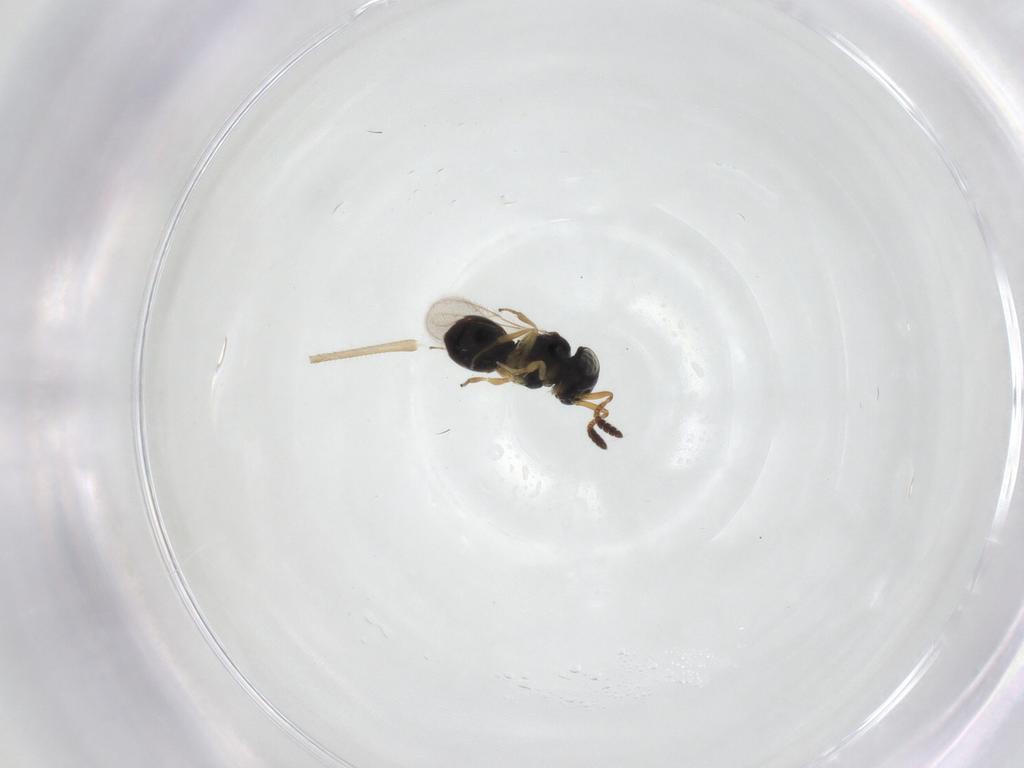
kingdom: Animalia
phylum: Arthropoda
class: Insecta
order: Hymenoptera
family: Scelionidae
